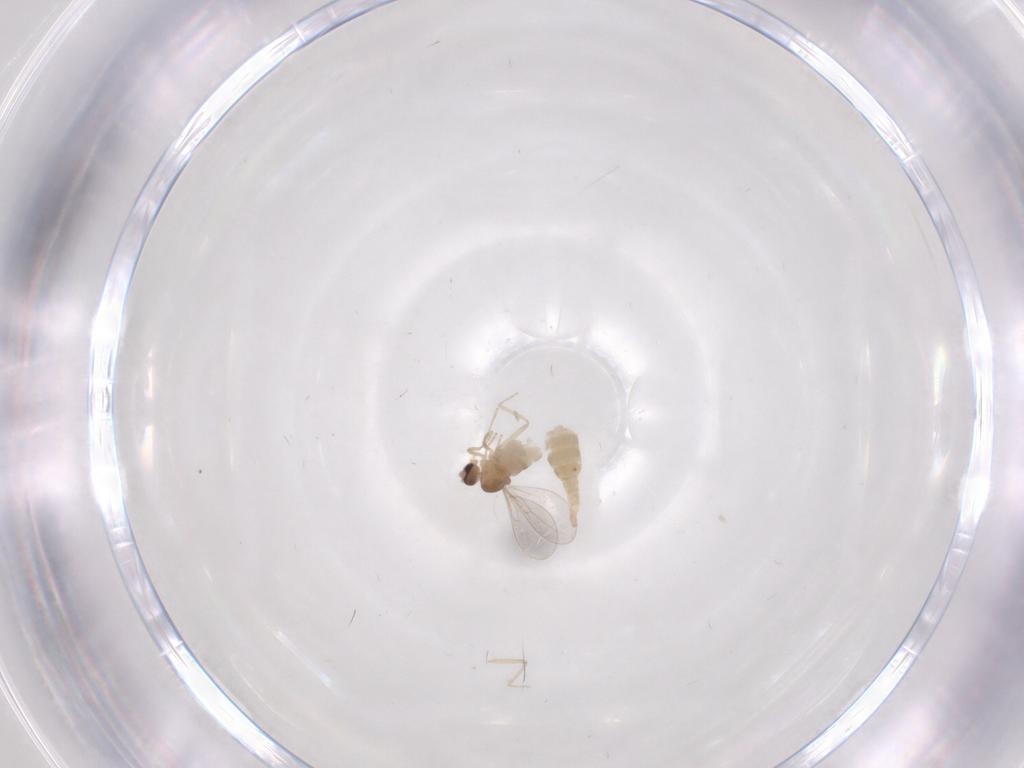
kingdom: Animalia
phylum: Arthropoda
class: Insecta
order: Diptera
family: Cecidomyiidae
